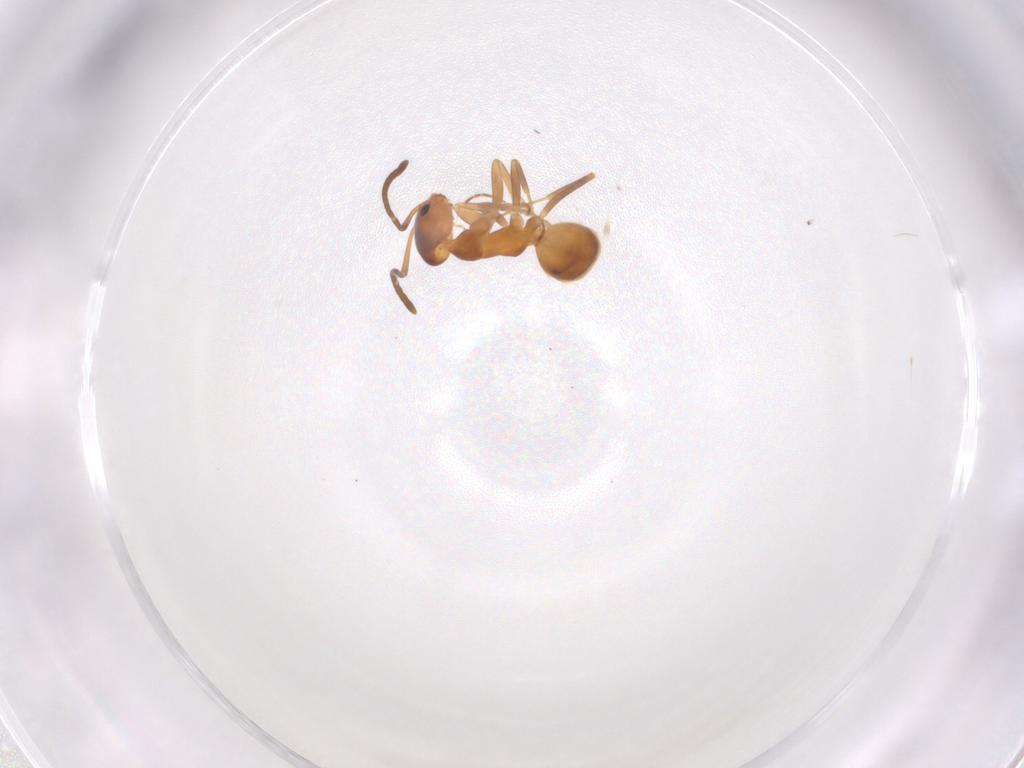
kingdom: Animalia
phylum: Arthropoda
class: Insecta
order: Hymenoptera
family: Formicidae
